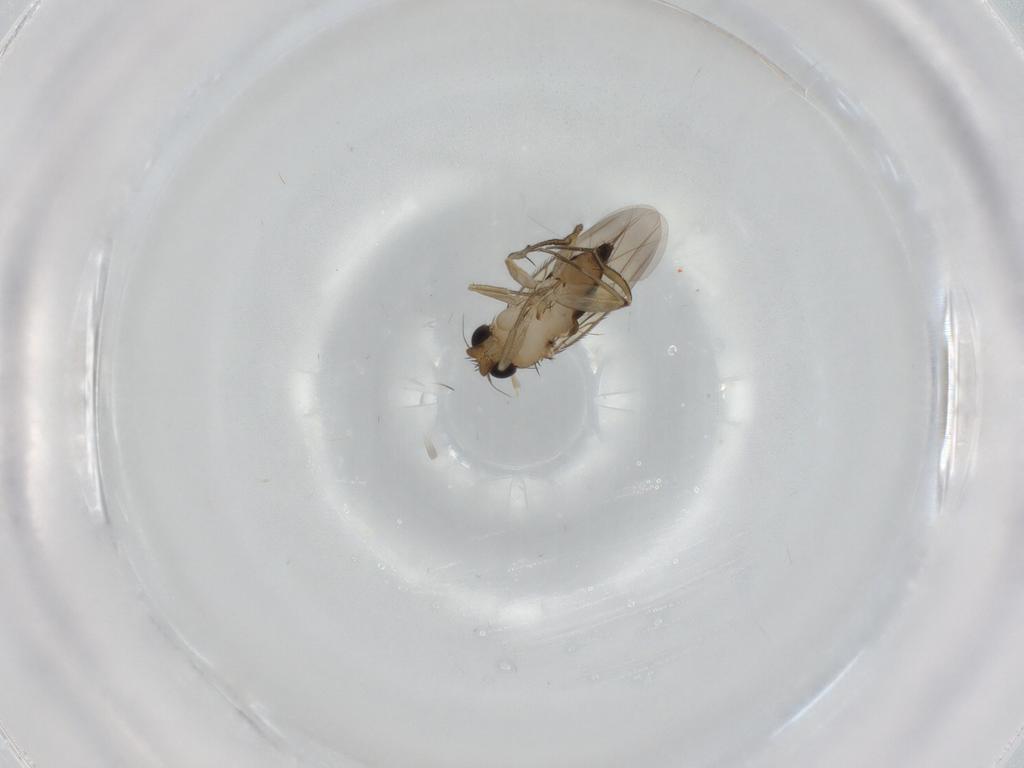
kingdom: Animalia
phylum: Arthropoda
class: Insecta
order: Diptera
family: Phoridae
